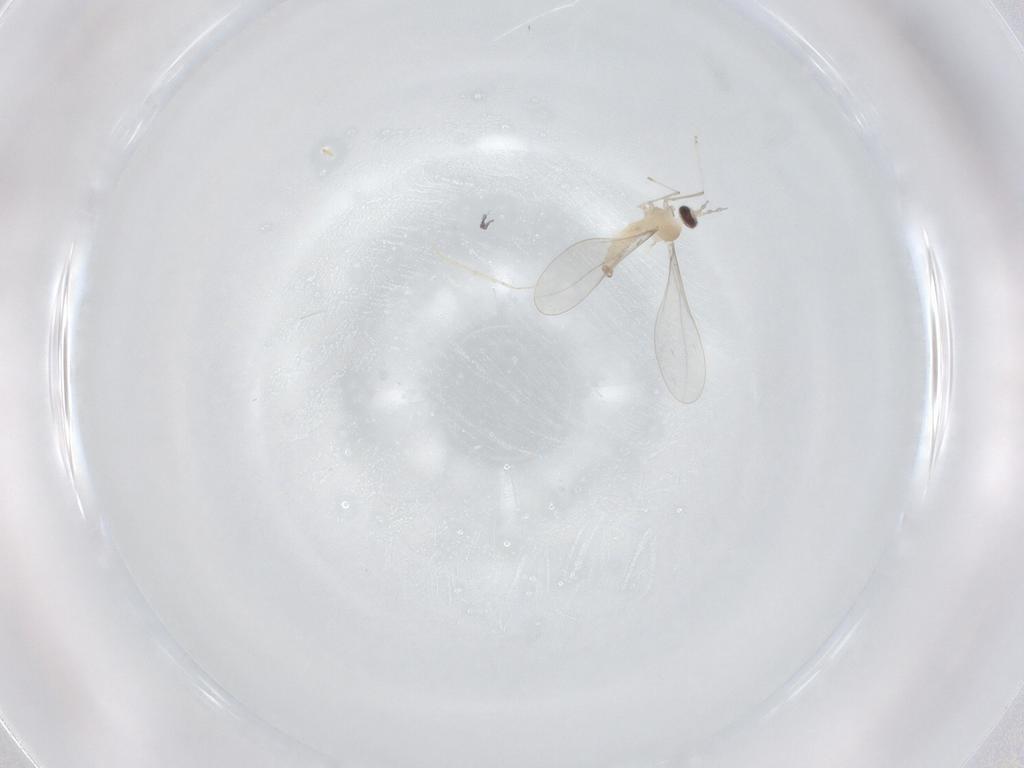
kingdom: Animalia
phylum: Arthropoda
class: Insecta
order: Diptera
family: Chironomidae
